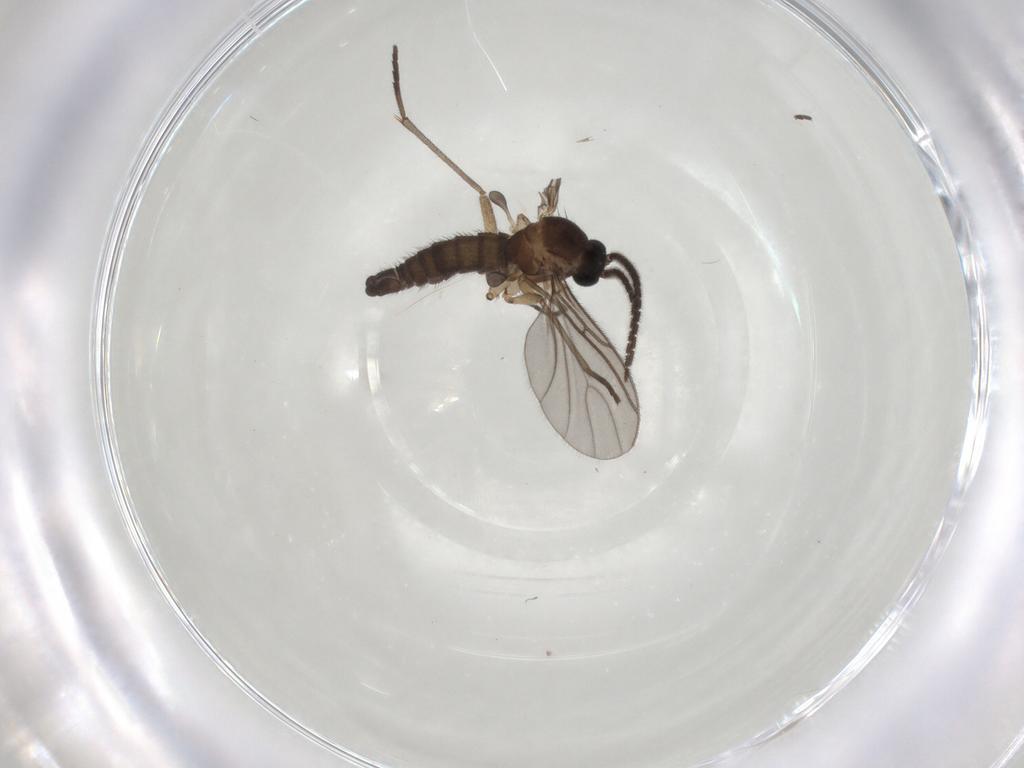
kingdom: Animalia
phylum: Arthropoda
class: Insecta
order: Diptera
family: Sciaridae
